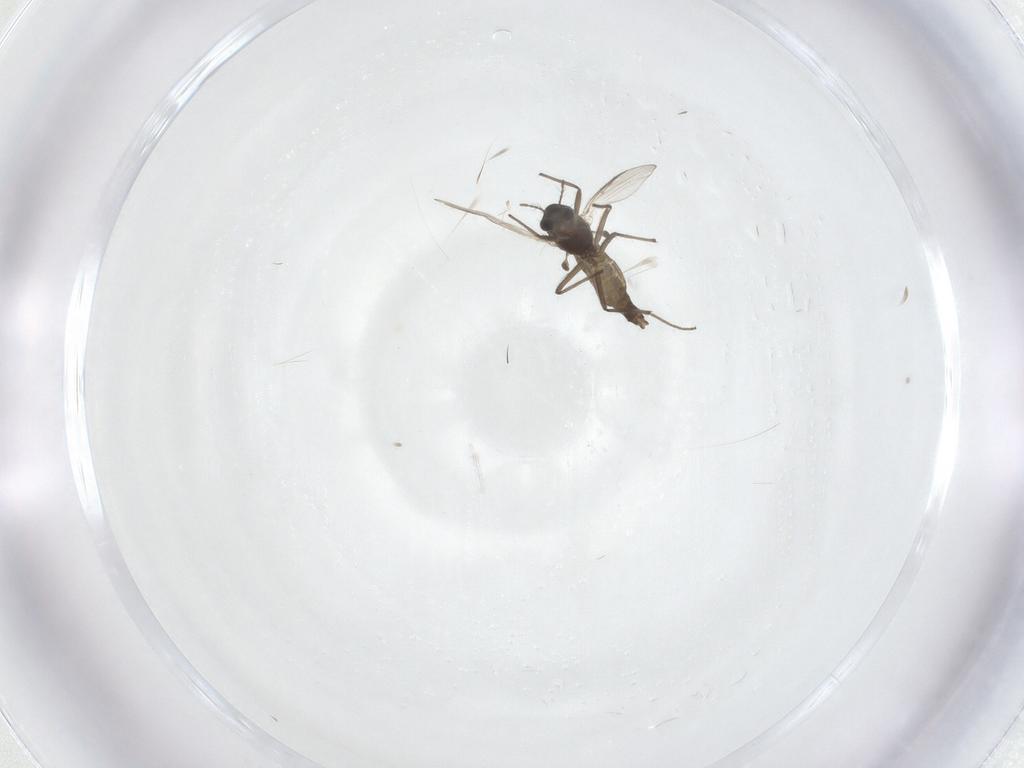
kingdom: Animalia
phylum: Arthropoda
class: Insecta
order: Diptera
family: Chironomidae
